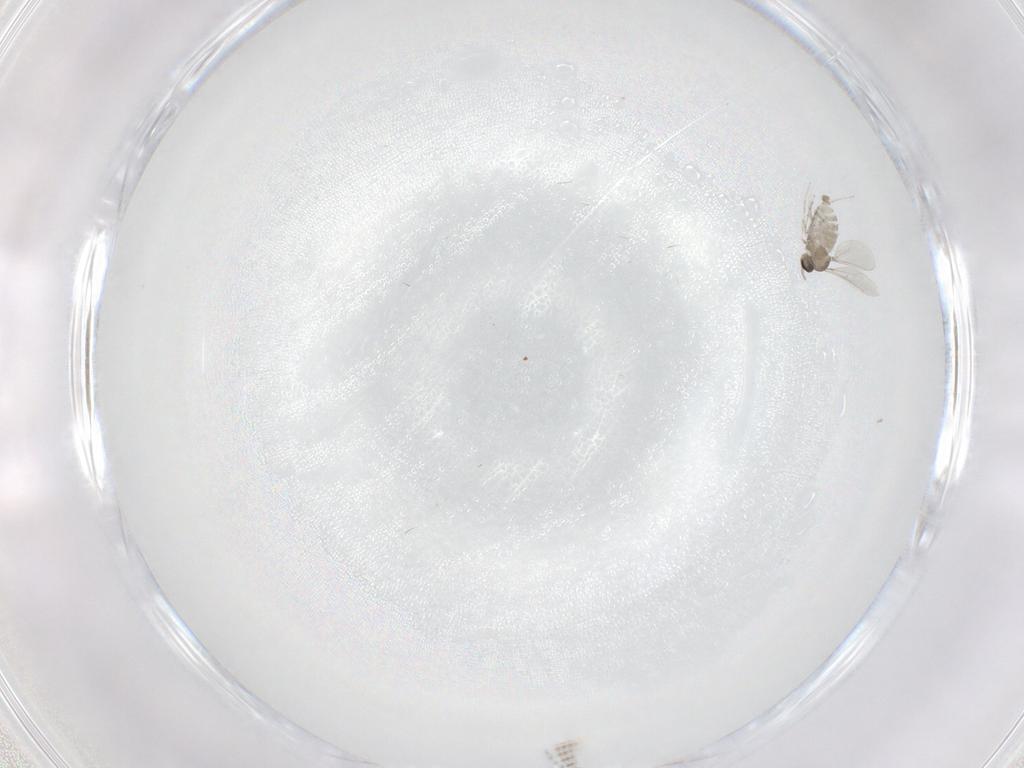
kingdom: Animalia
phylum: Arthropoda
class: Insecta
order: Diptera
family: Cecidomyiidae
